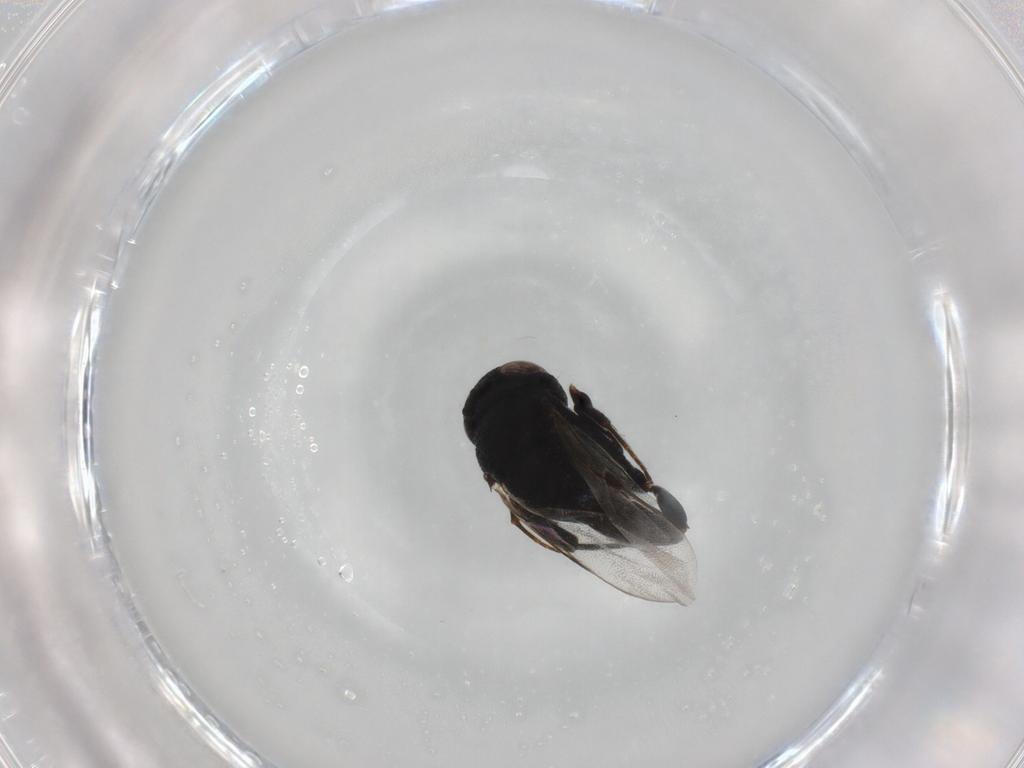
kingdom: Animalia
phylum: Arthropoda
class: Insecta
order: Hymenoptera
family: Evaniidae
